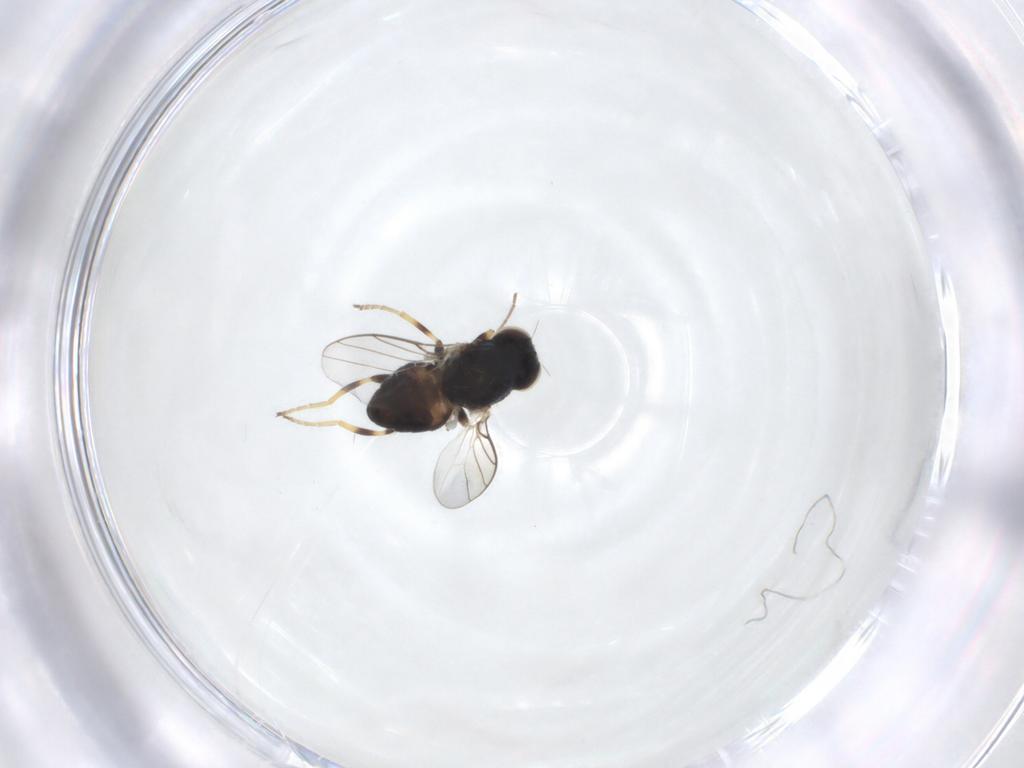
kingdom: Animalia
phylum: Arthropoda
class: Insecta
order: Diptera
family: Chloropidae
